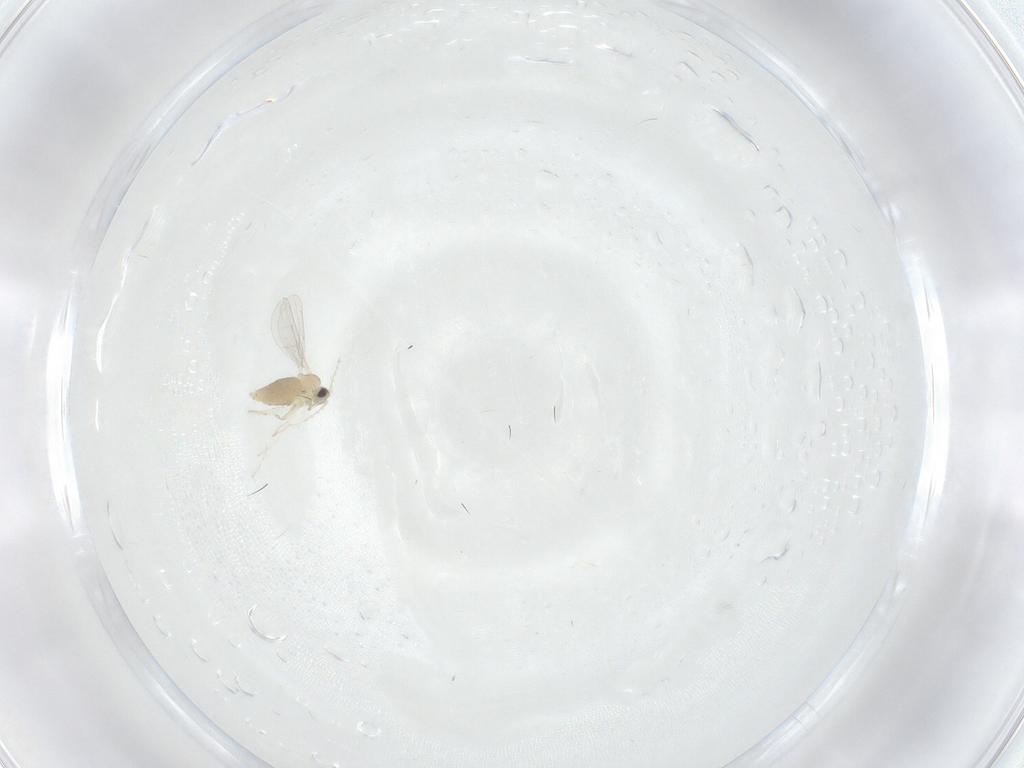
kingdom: Animalia
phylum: Arthropoda
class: Insecta
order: Diptera
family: Cecidomyiidae
